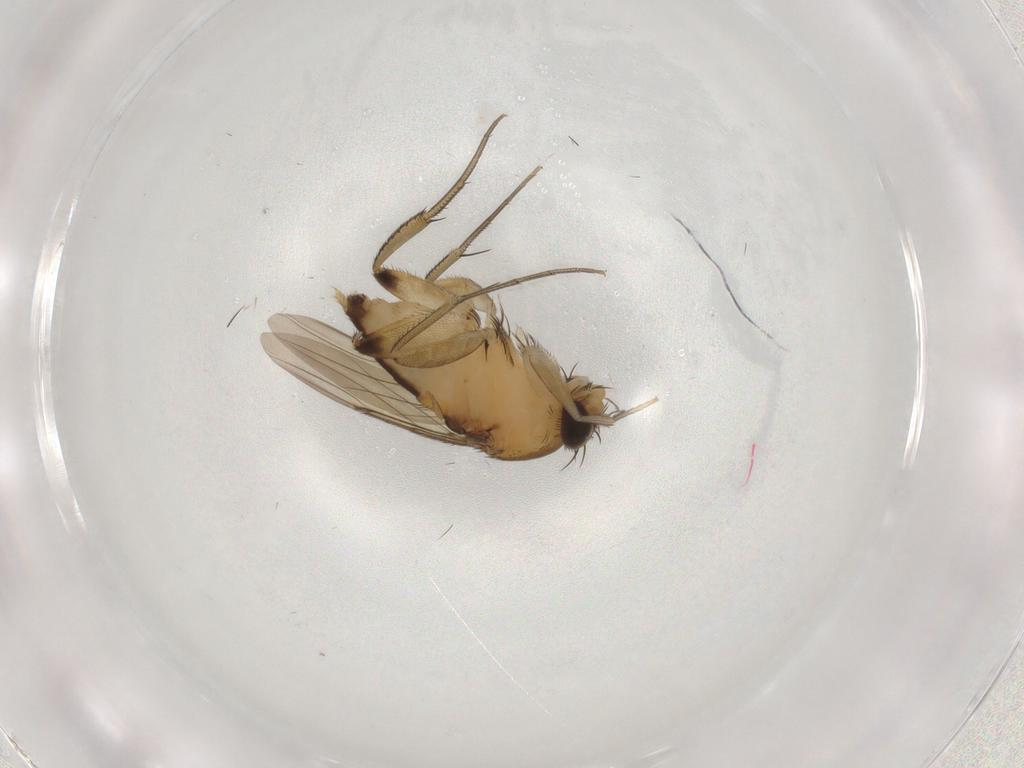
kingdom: Animalia
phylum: Arthropoda
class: Insecta
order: Diptera
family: Phoridae
